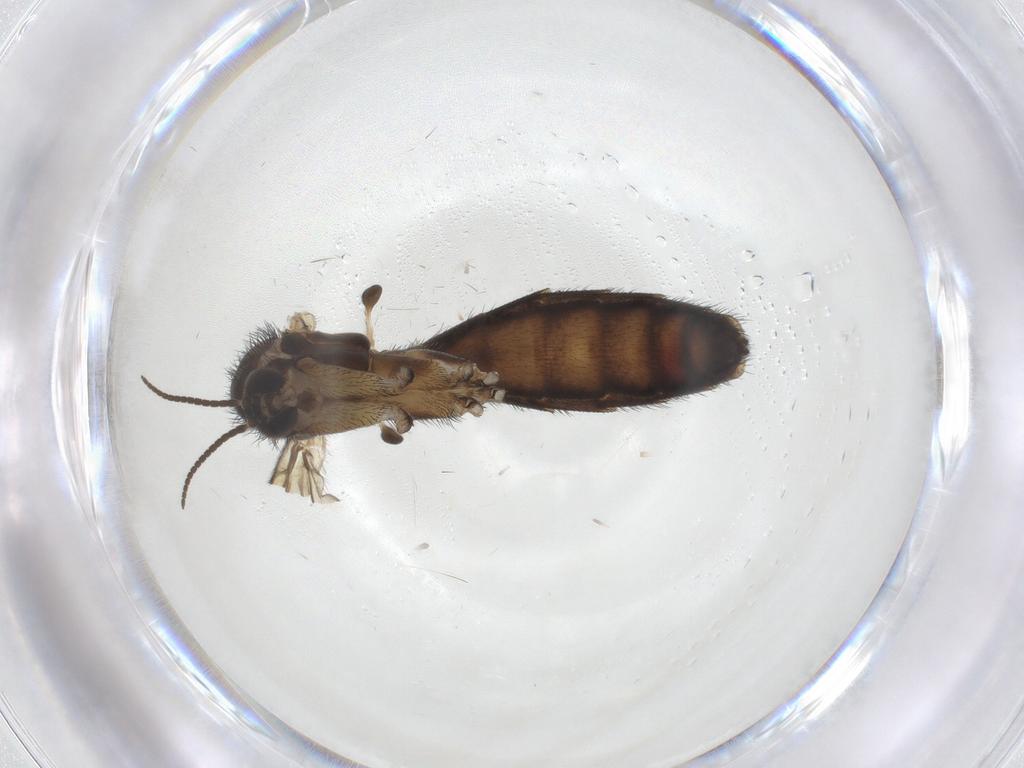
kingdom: Animalia
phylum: Arthropoda
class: Insecta
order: Diptera
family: Keroplatidae
